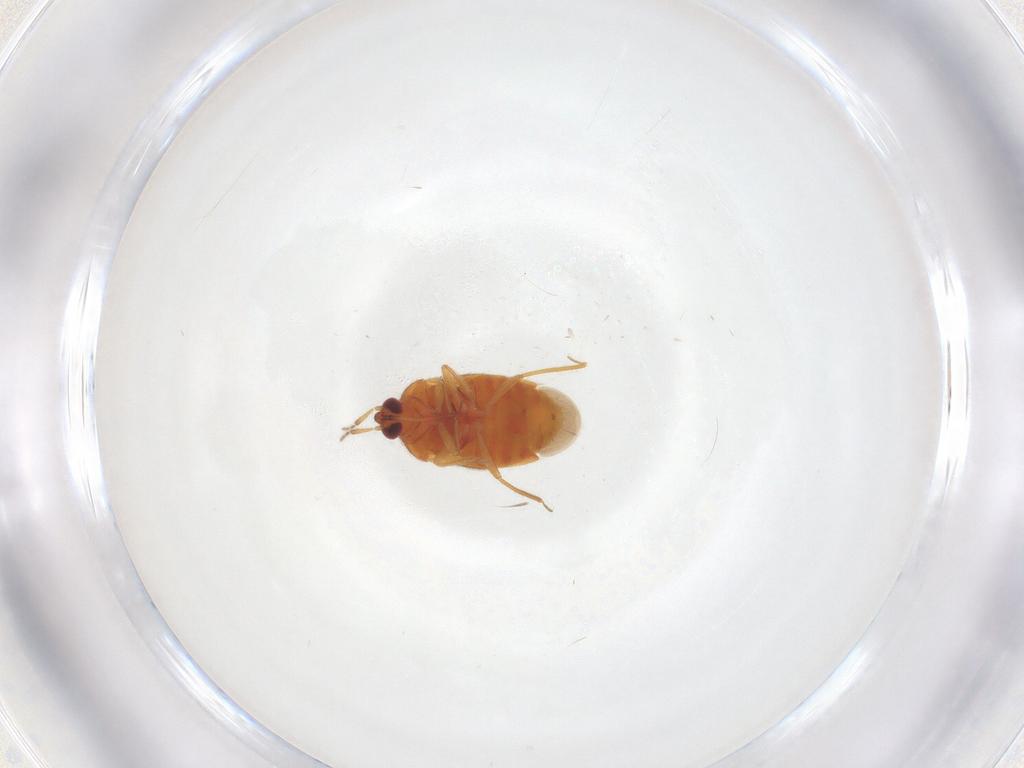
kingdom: Animalia
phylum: Arthropoda
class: Insecta
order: Hemiptera
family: Anthocoridae
